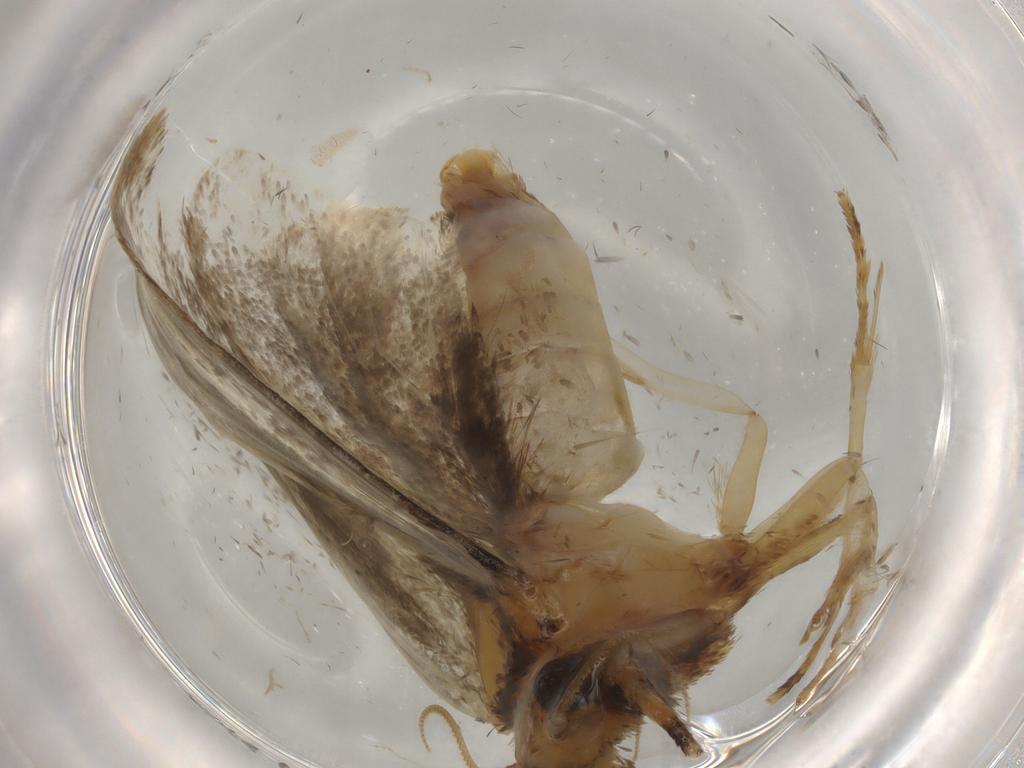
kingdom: Animalia
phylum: Arthropoda
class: Insecta
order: Lepidoptera
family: Tineidae
